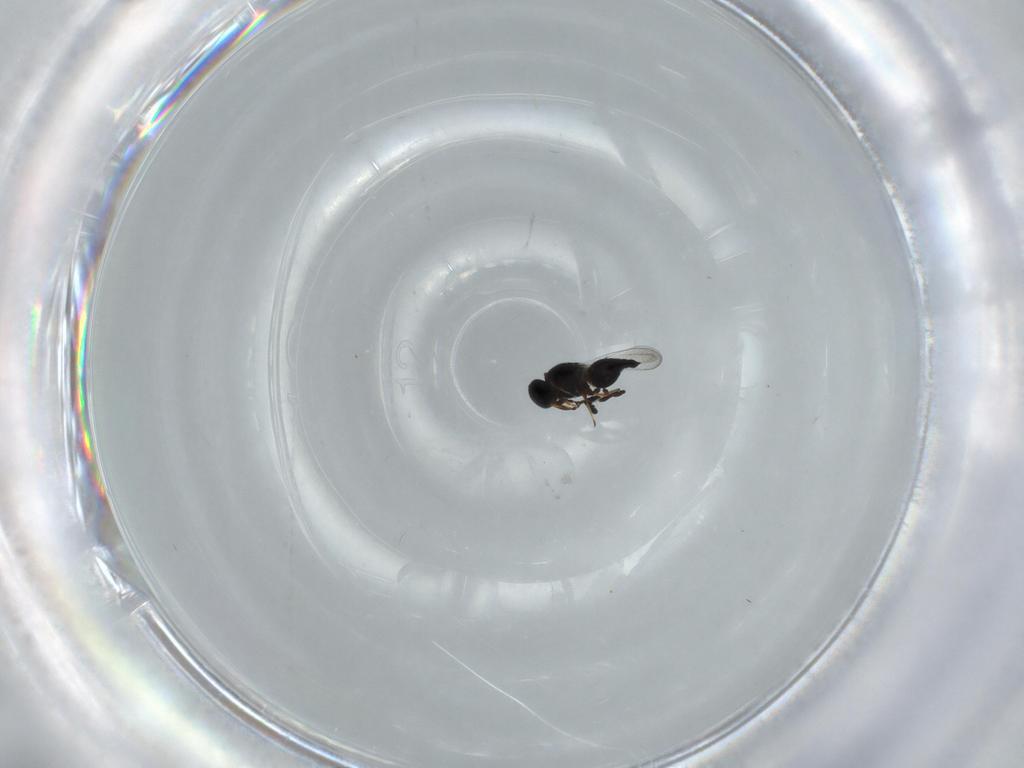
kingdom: Animalia
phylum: Arthropoda
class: Insecta
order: Hymenoptera
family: Platygastridae
